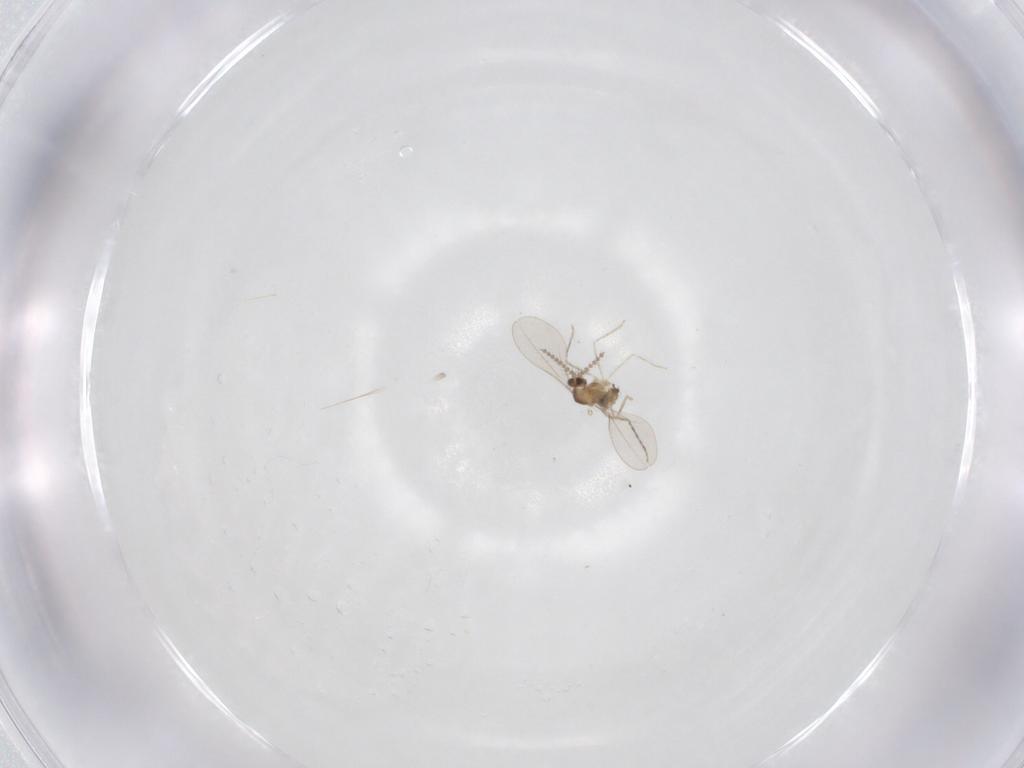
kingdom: Animalia
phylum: Arthropoda
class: Insecta
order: Diptera
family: Cecidomyiidae
